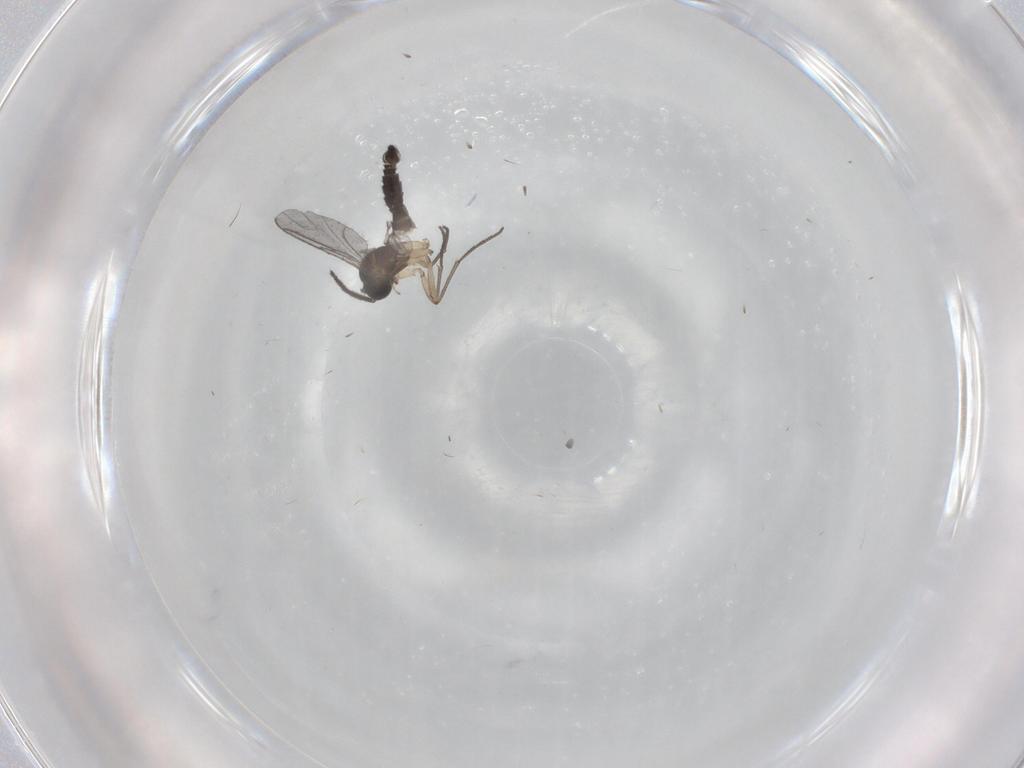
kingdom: Animalia
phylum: Arthropoda
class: Insecta
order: Diptera
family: Sciaridae
